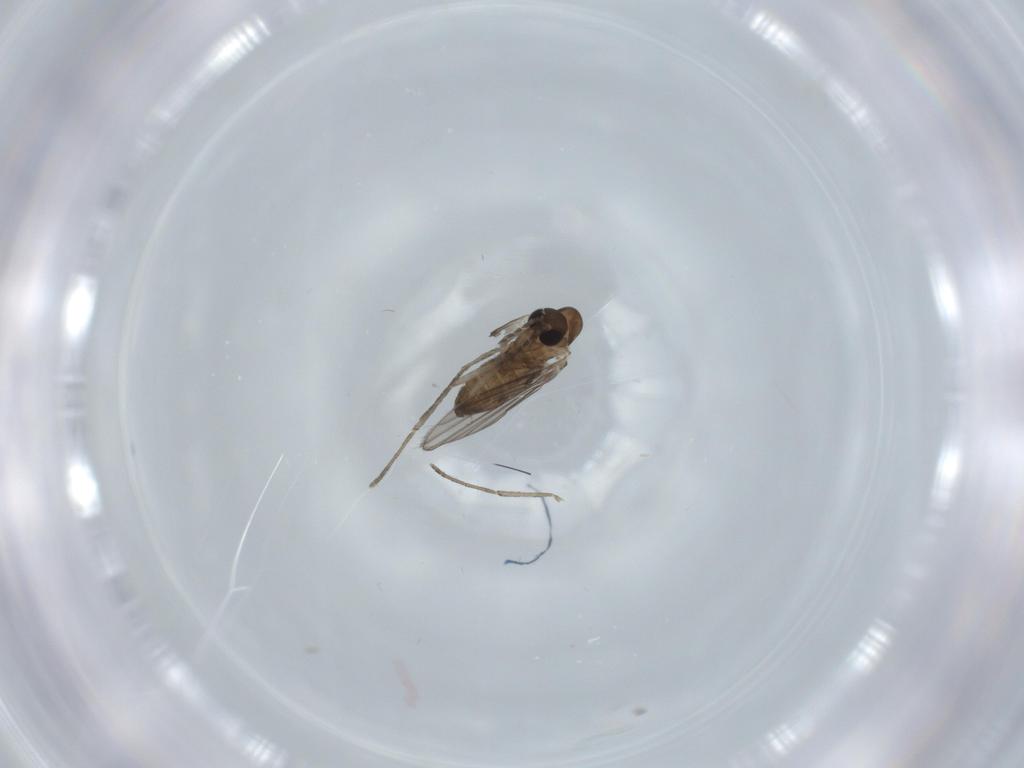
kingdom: Animalia
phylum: Arthropoda
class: Insecta
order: Diptera
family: Psychodidae
